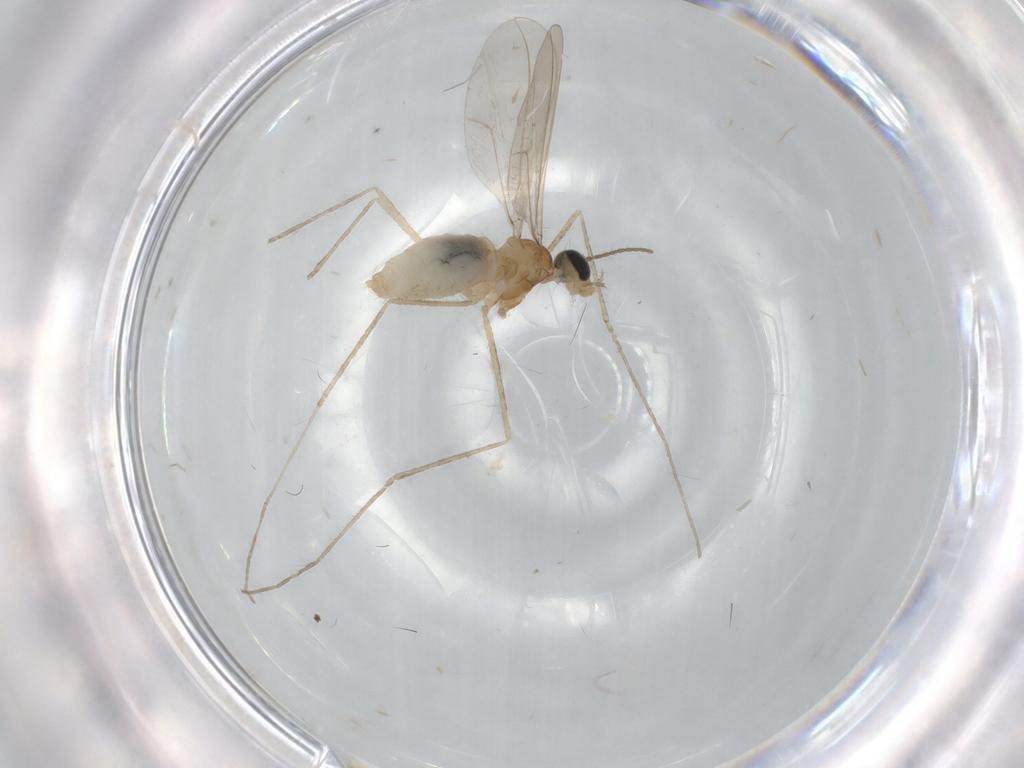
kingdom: Animalia
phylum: Arthropoda
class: Insecta
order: Diptera
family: Cecidomyiidae
